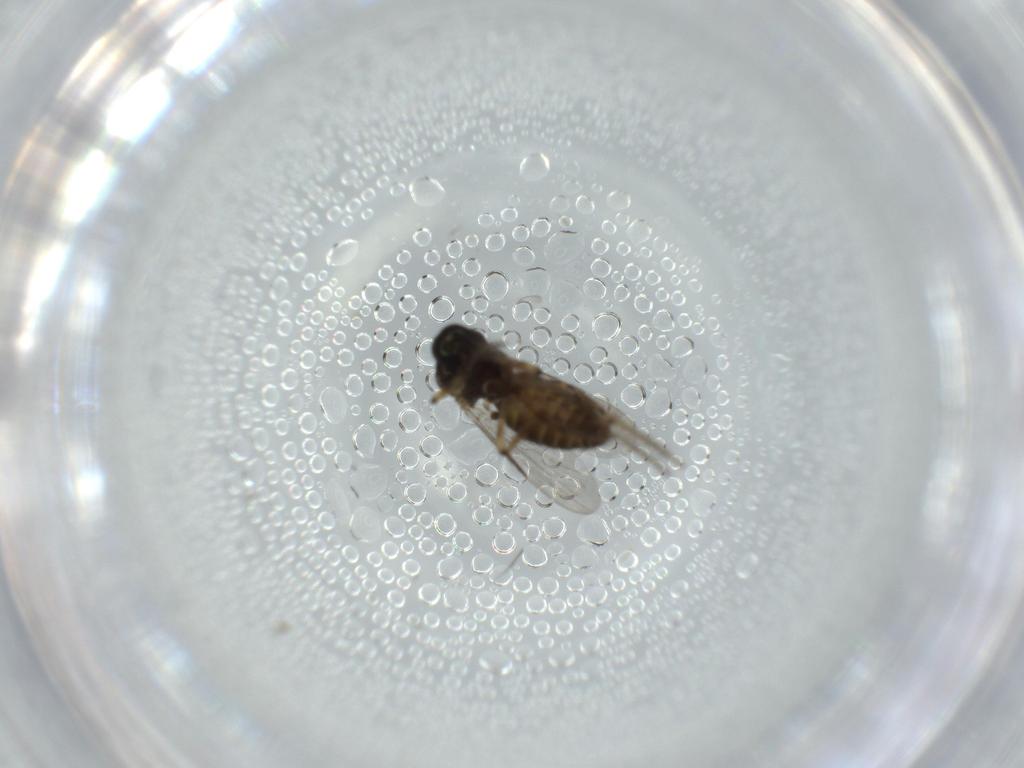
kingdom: Animalia
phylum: Arthropoda
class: Insecta
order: Diptera
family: Ceratopogonidae
